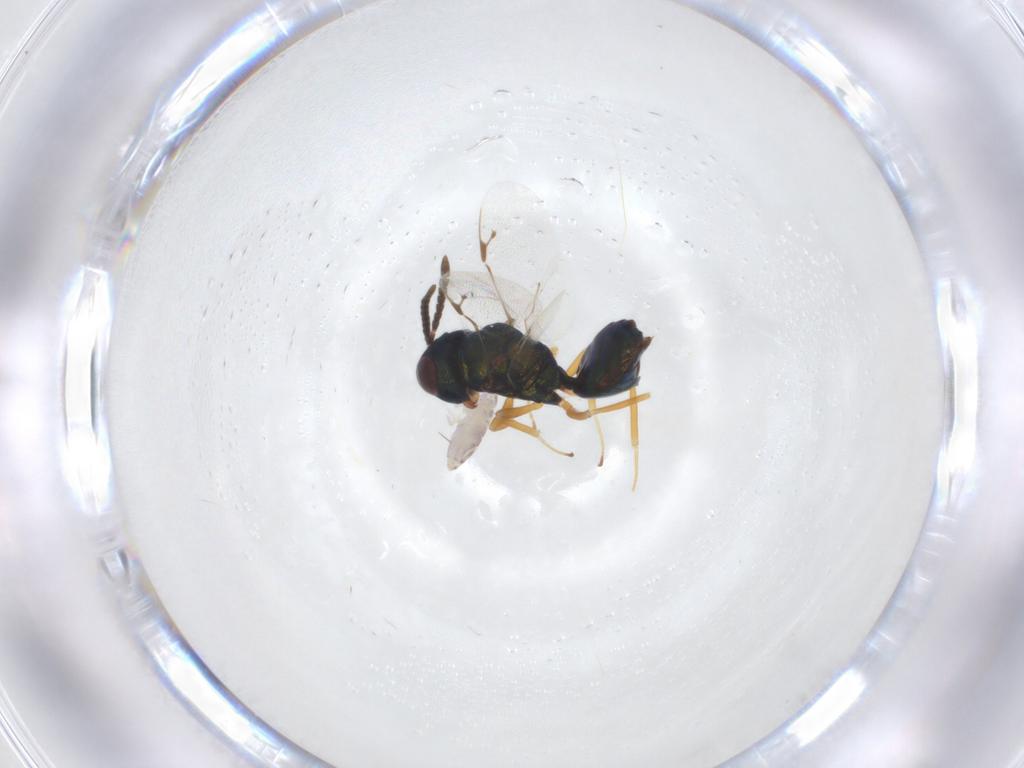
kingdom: Animalia
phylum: Arthropoda
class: Insecta
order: Hymenoptera
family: Pteromalidae
